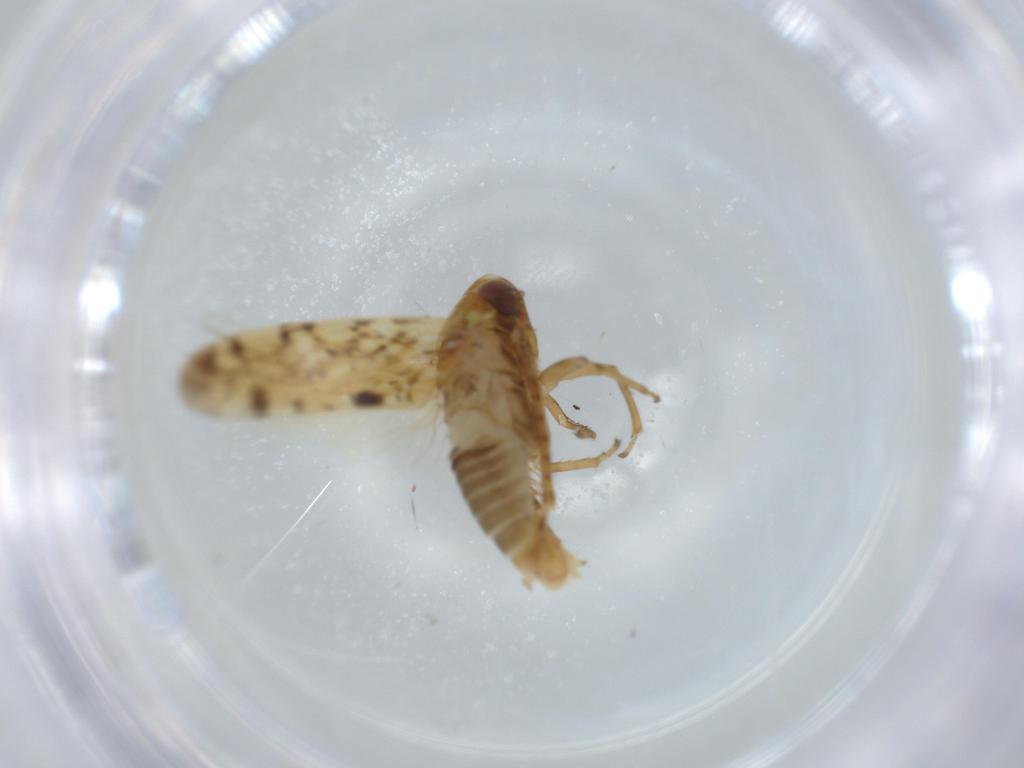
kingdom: Animalia
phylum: Arthropoda
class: Insecta
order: Hemiptera
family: Cicadellidae
